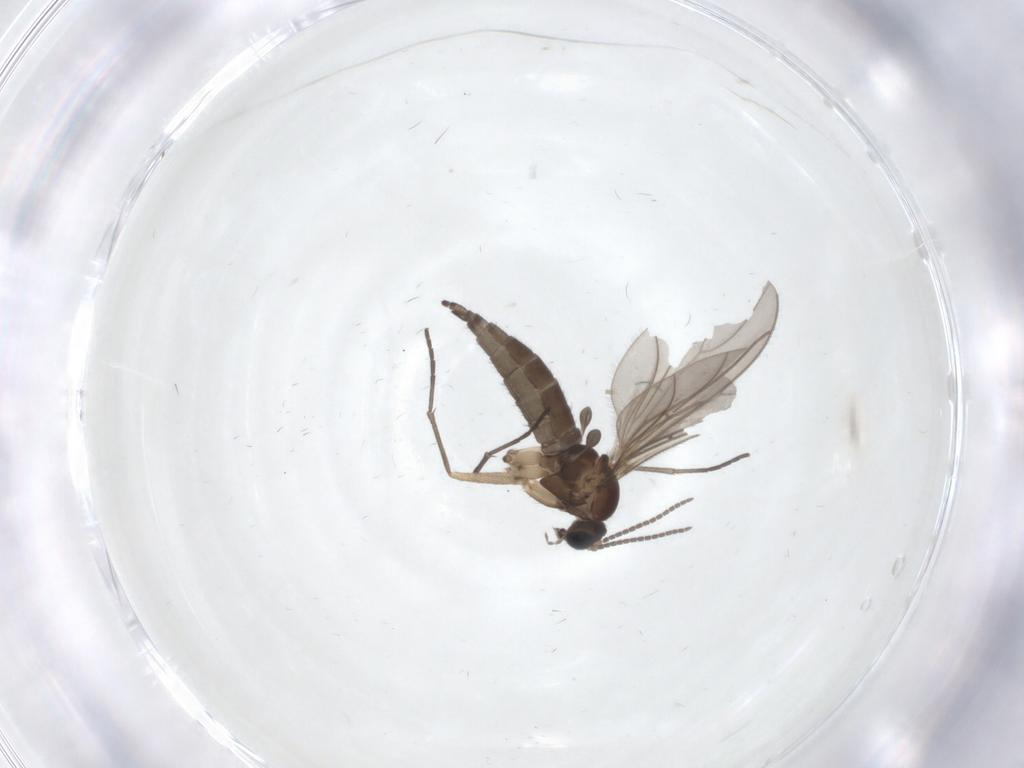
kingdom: Animalia
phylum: Arthropoda
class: Insecta
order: Diptera
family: Sciaridae
